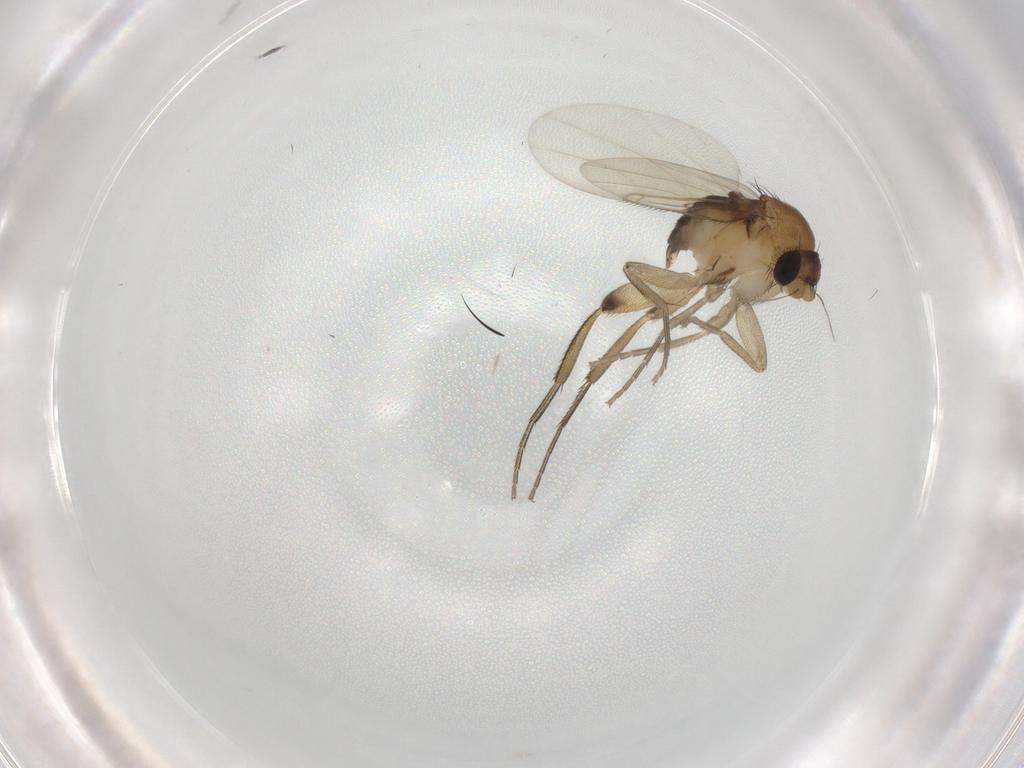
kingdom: Animalia
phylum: Arthropoda
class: Insecta
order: Diptera
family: Phoridae
